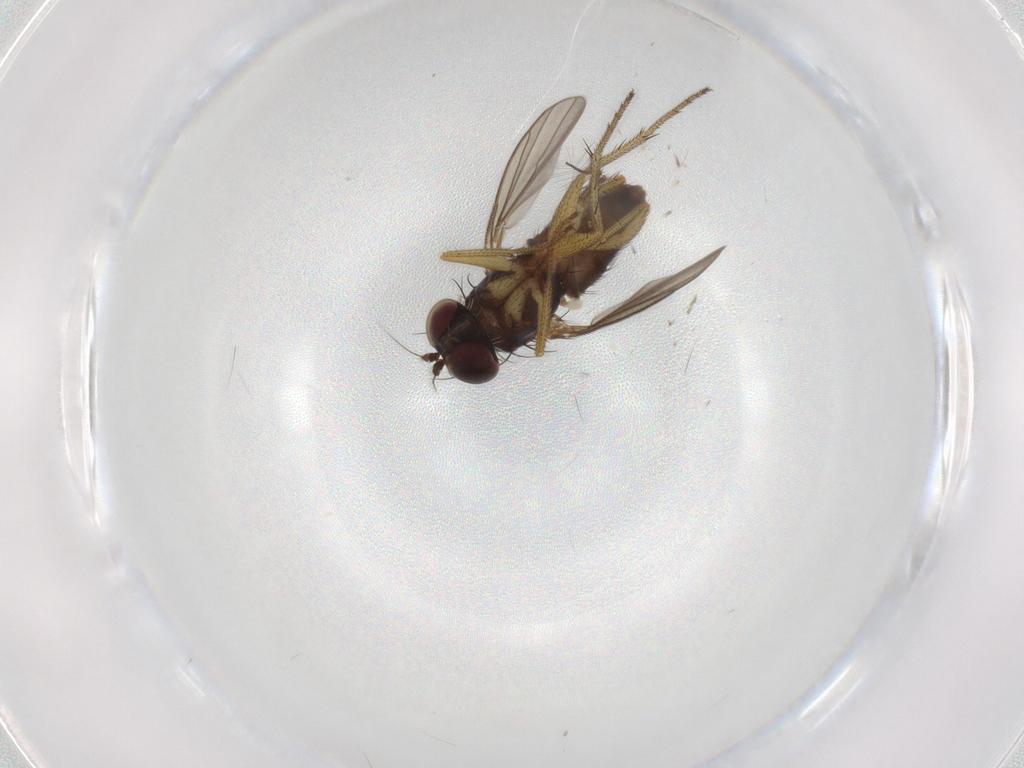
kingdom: Animalia
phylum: Arthropoda
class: Insecta
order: Diptera
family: Chironomidae
